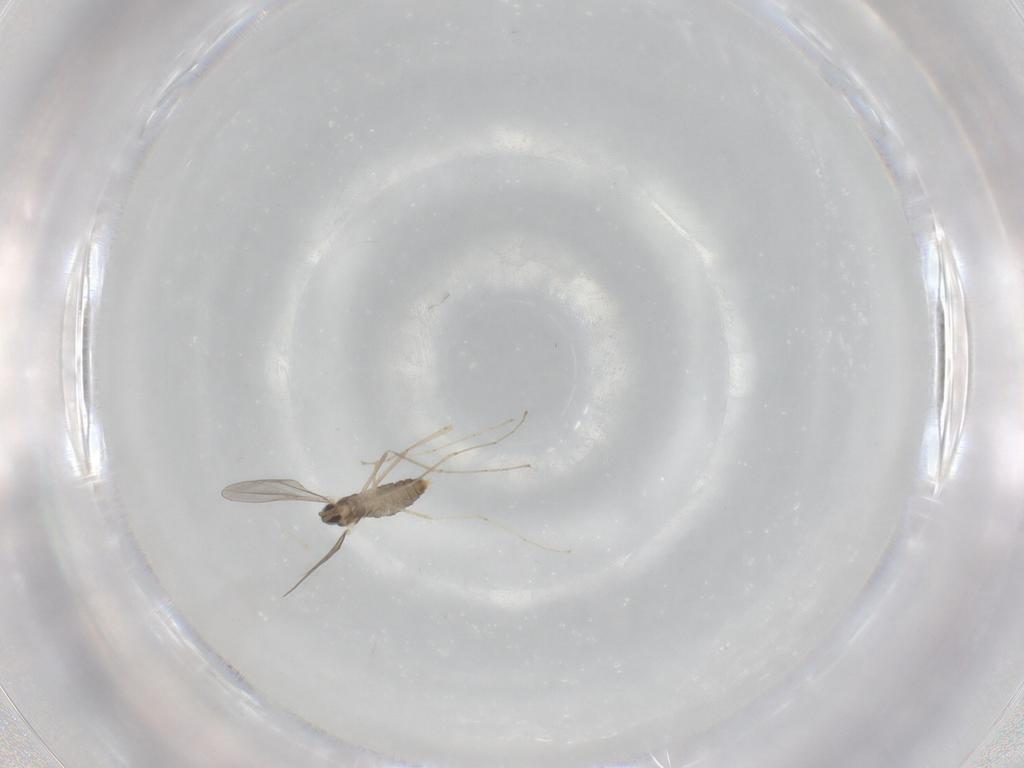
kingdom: Animalia
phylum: Arthropoda
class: Insecta
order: Diptera
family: Cecidomyiidae
